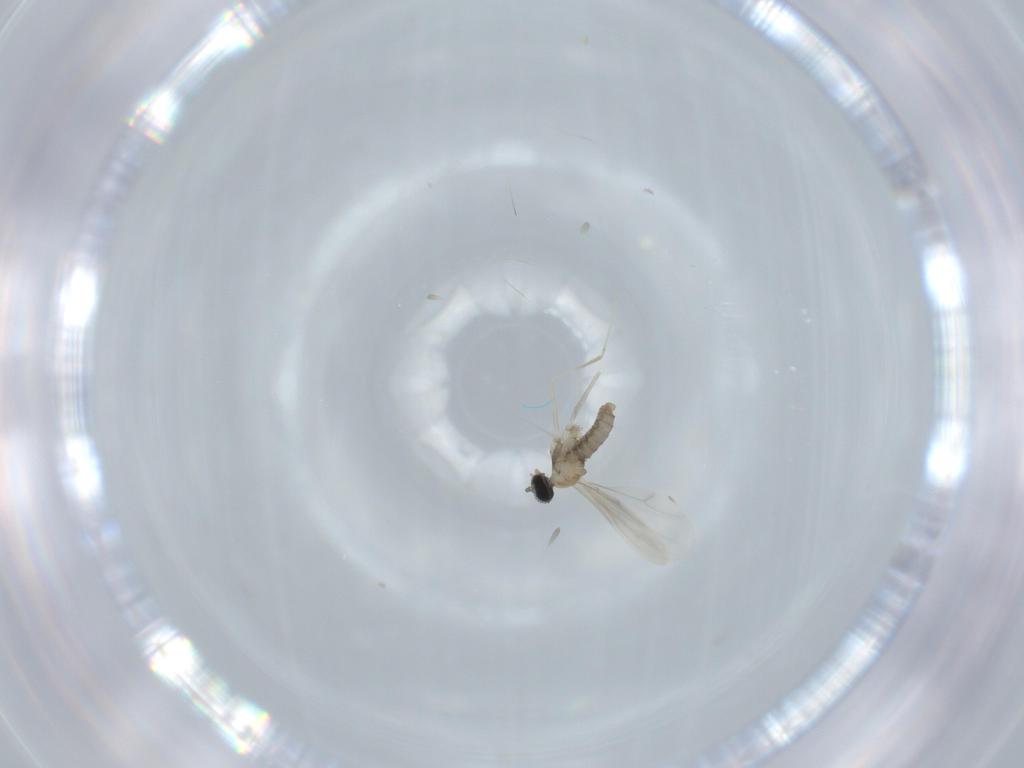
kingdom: Animalia
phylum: Arthropoda
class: Insecta
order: Diptera
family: Cecidomyiidae
